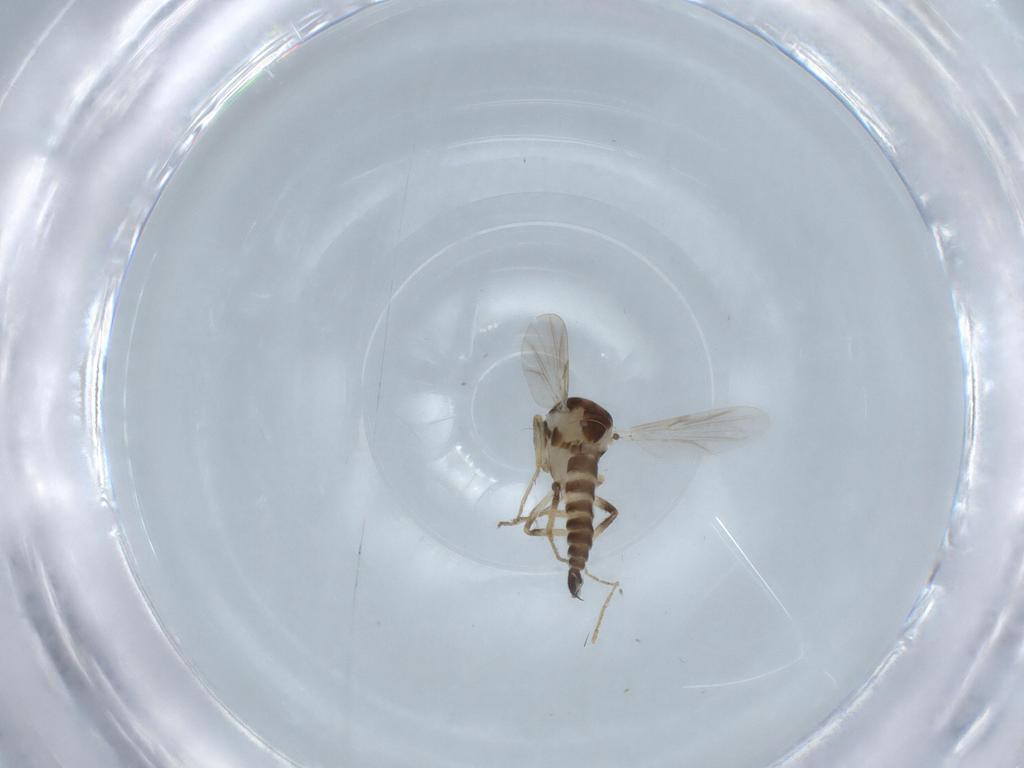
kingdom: Animalia
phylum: Arthropoda
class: Insecta
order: Diptera
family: Ceratopogonidae
